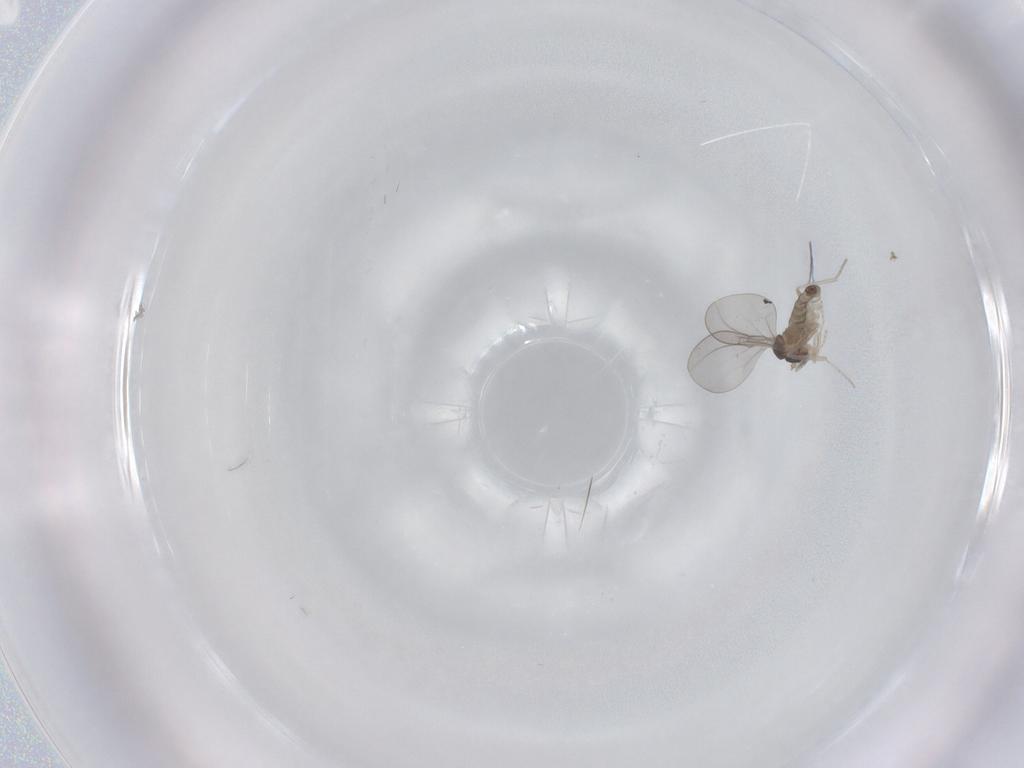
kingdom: Animalia
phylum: Arthropoda
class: Insecta
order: Diptera
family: Cecidomyiidae
